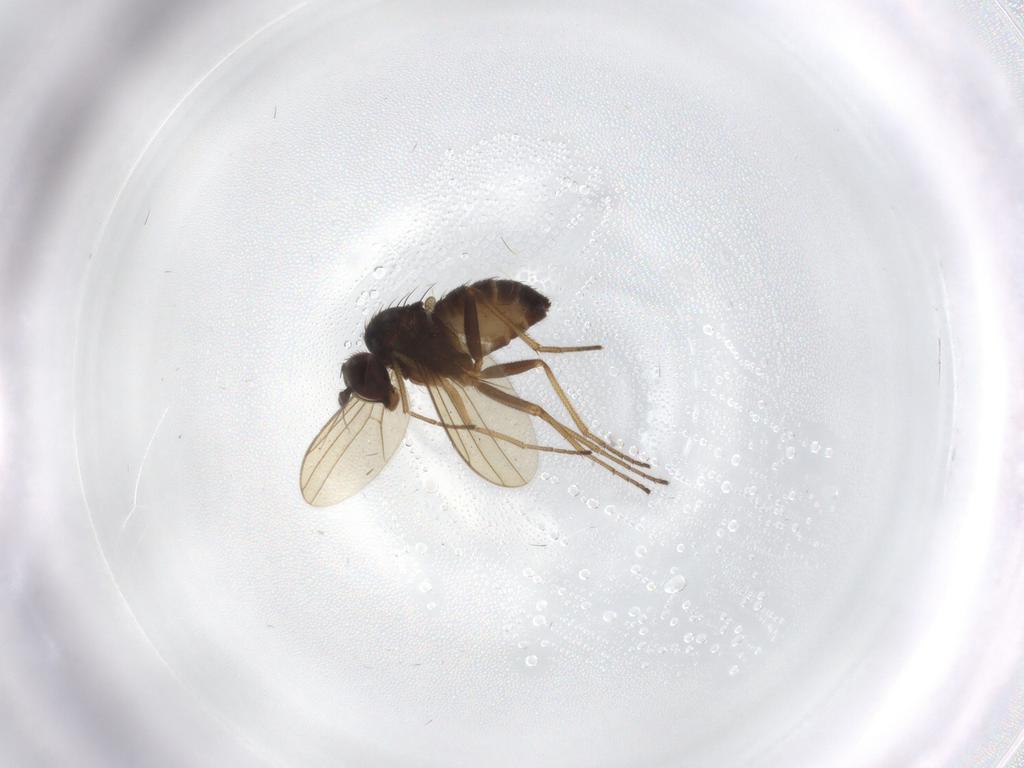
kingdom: Animalia
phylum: Arthropoda
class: Insecta
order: Diptera
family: Dolichopodidae
